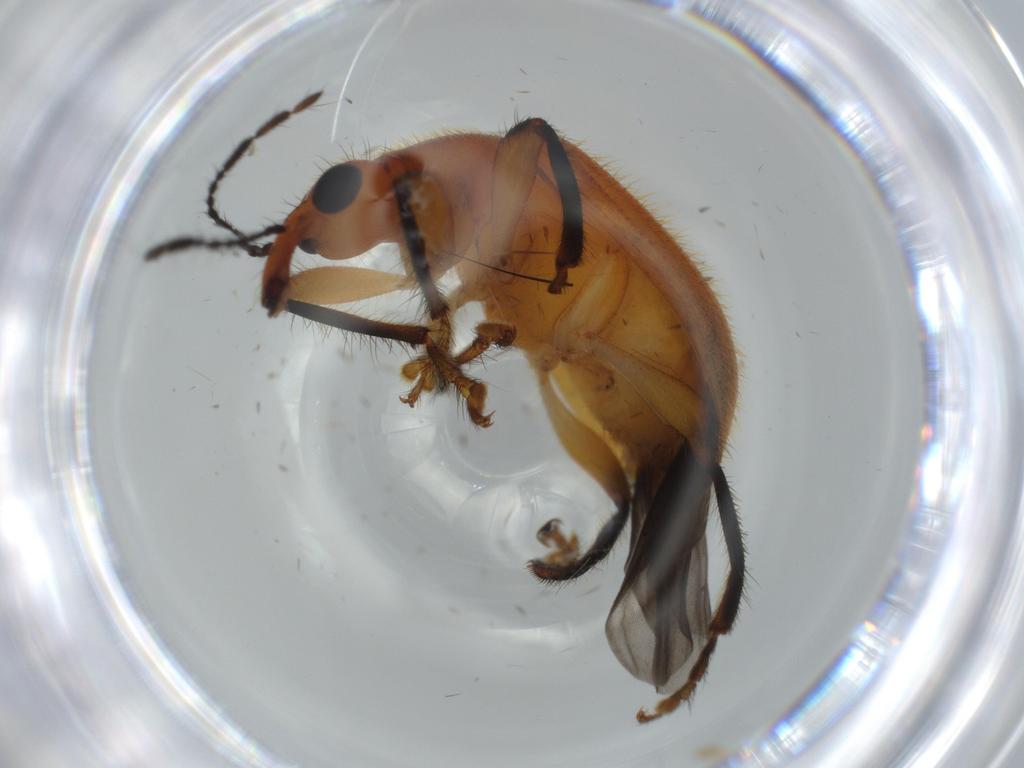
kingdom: Animalia
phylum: Arthropoda
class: Insecta
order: Coleoptera
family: Attelabidae
